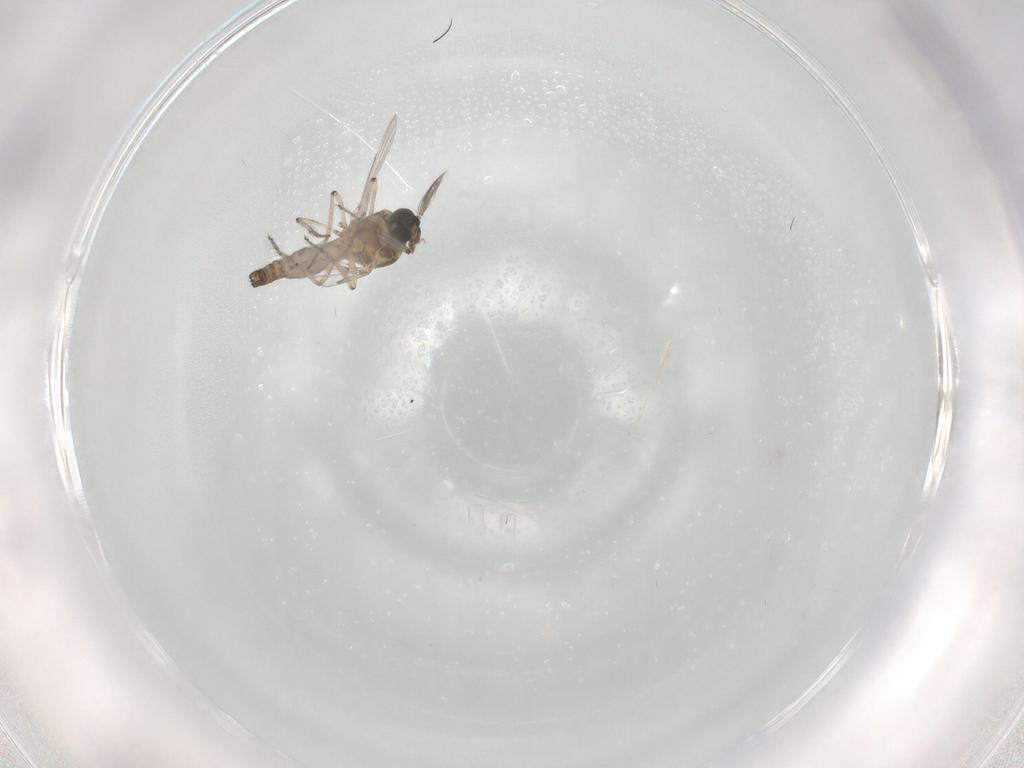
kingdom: Animalia
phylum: Arthropoda
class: Insecta
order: Diptera
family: Ceratopogonidae
